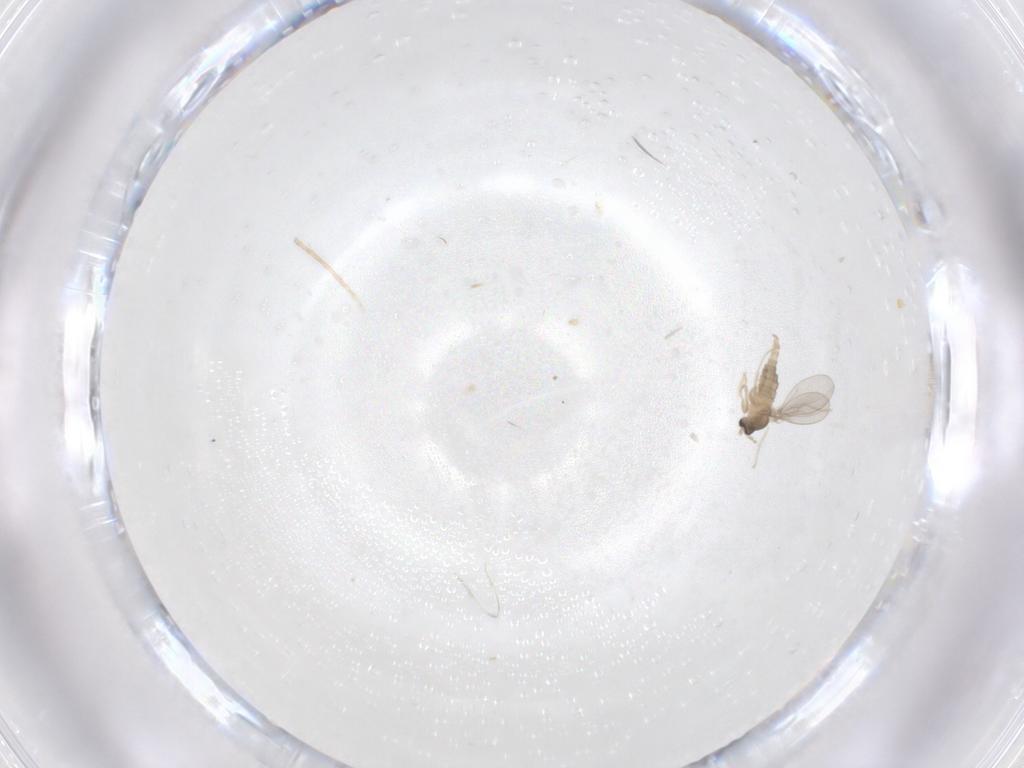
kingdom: Animalia
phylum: Arthropoda
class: Insecta
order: Diptera
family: Cecidomyiidae
